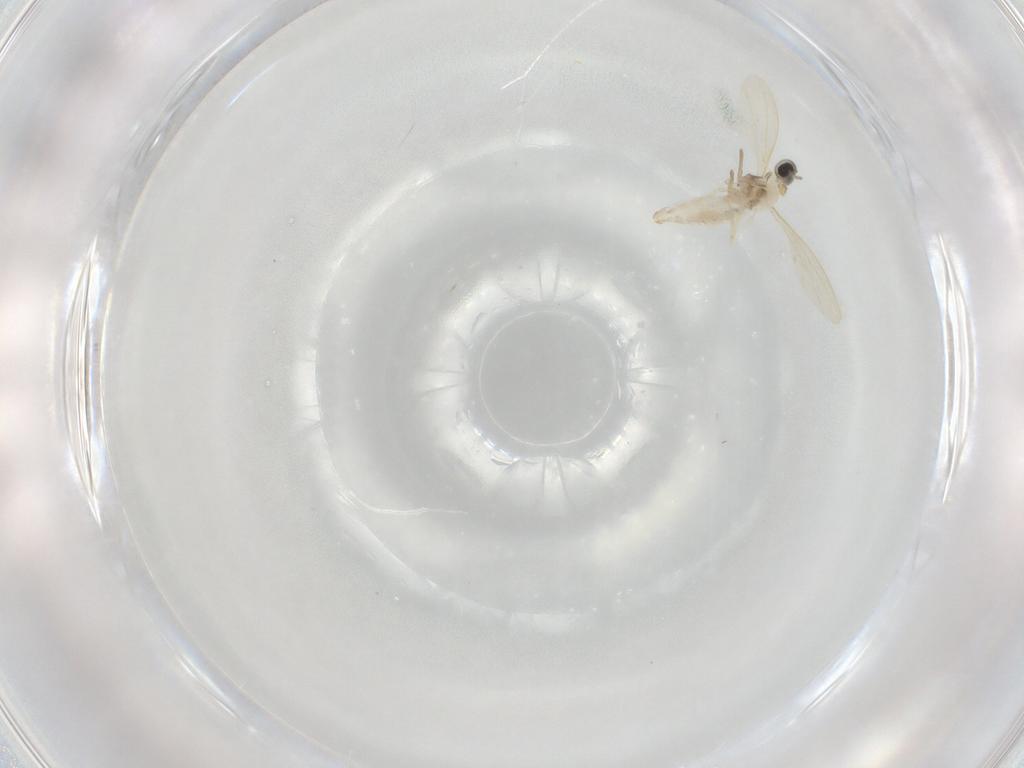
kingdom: Animalia
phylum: Arthropoda
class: Insecta
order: Diptera
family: Cecidomyiidae
